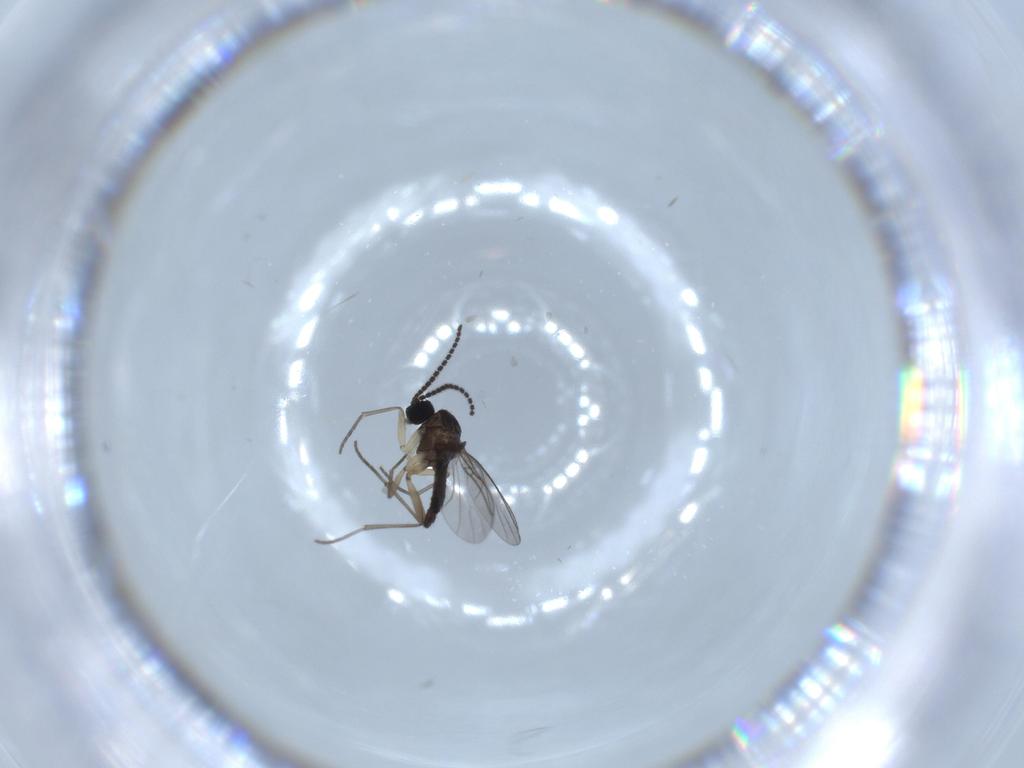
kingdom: Animalia
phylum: Arthropoda
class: Insecta
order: Diptera
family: Sciaridae
